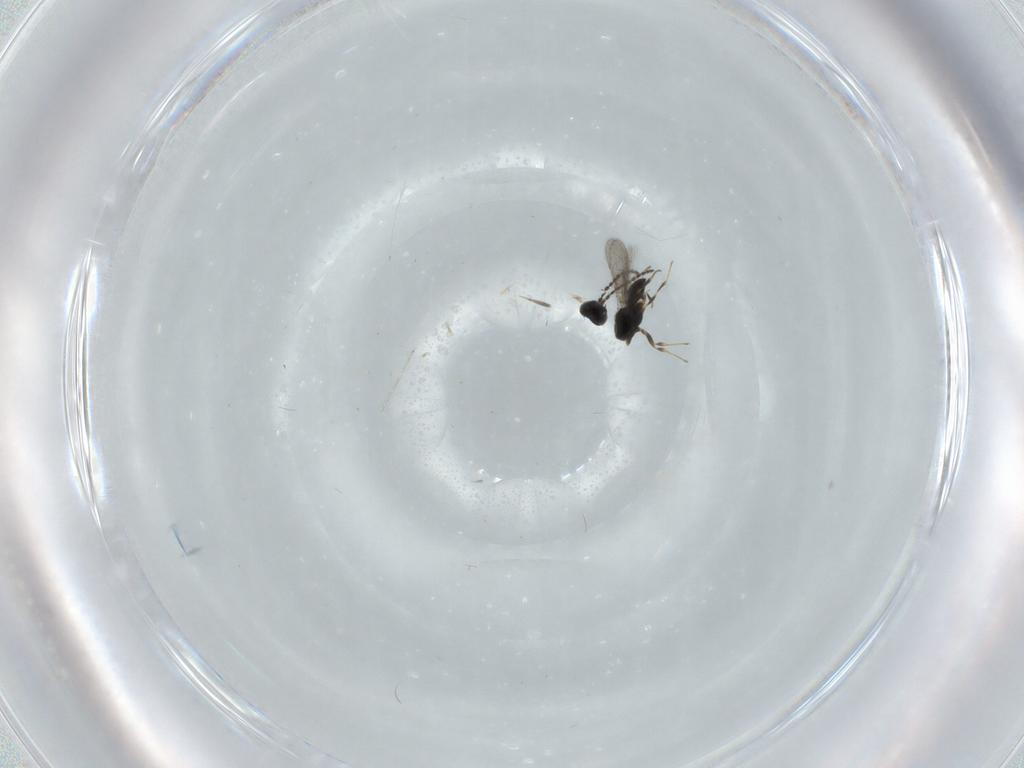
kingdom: Animalia
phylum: Arthropoda
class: Insecta
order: Hymenoptera
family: Scelionidae
